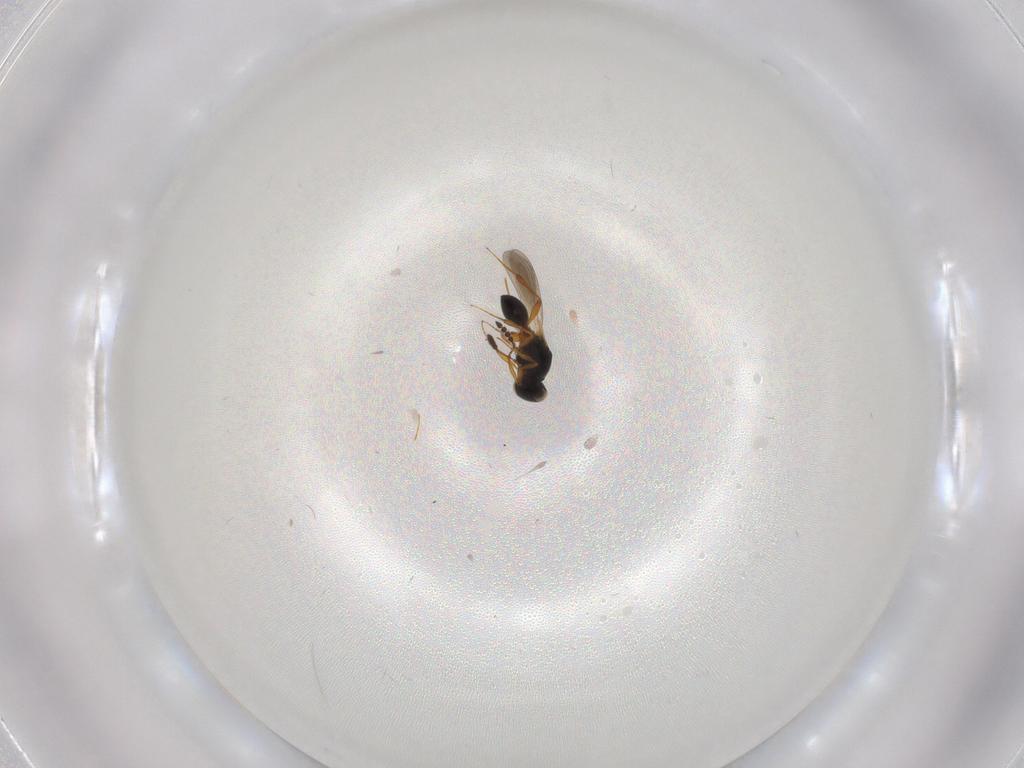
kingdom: Animalia
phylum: Arthropoda
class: Insecta
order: Hymenoptera
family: Platygastridae
